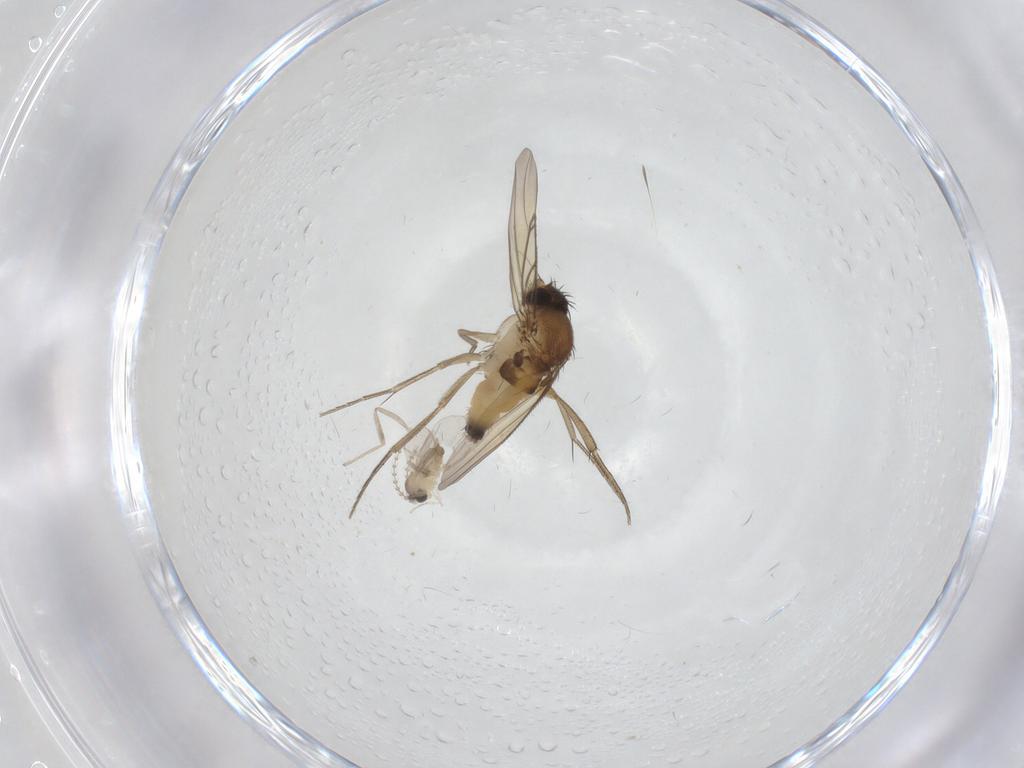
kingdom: Animalia
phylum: Arthropoda
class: Insecta
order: Diptera
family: Cecidomyiidae
